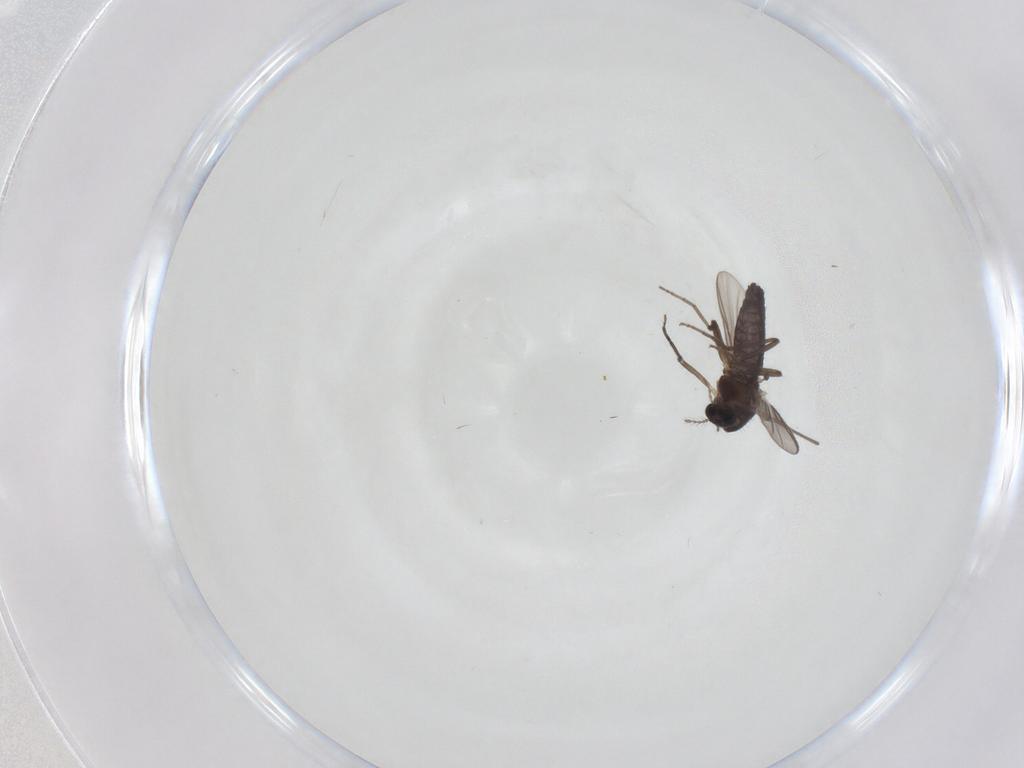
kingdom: Animalia
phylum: Arthropoda
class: Insecta
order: Diptera
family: Chironomidae
